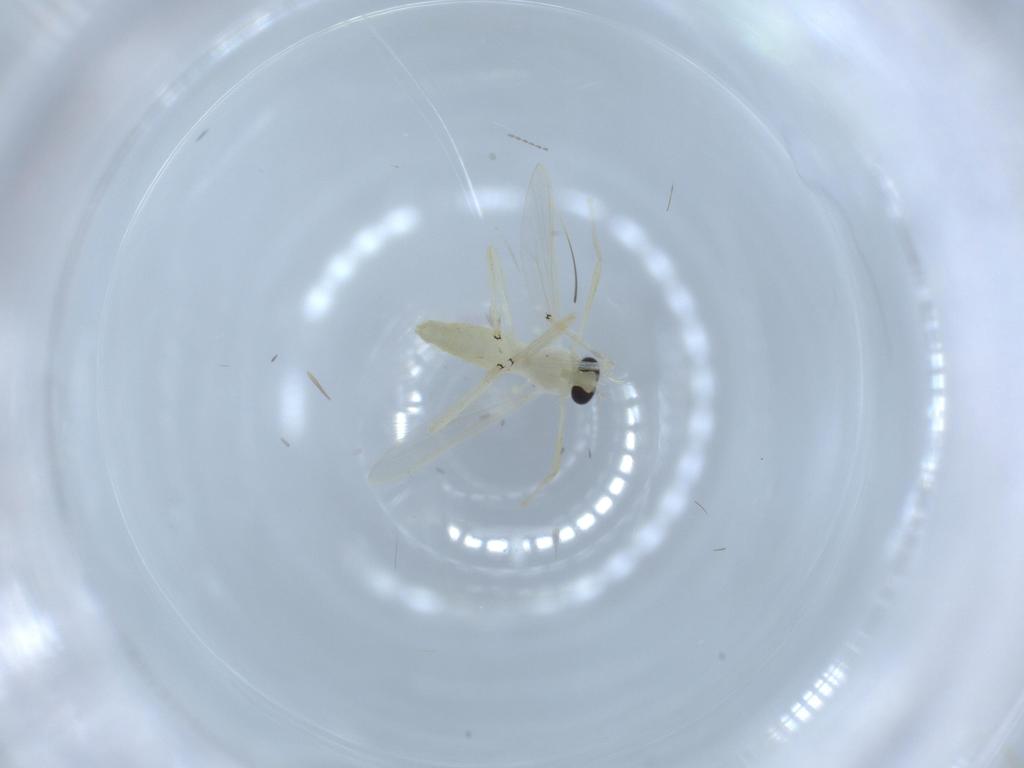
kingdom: Animalia
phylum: Arthropoda
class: Insecta
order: Diptera
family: Chironomidae
